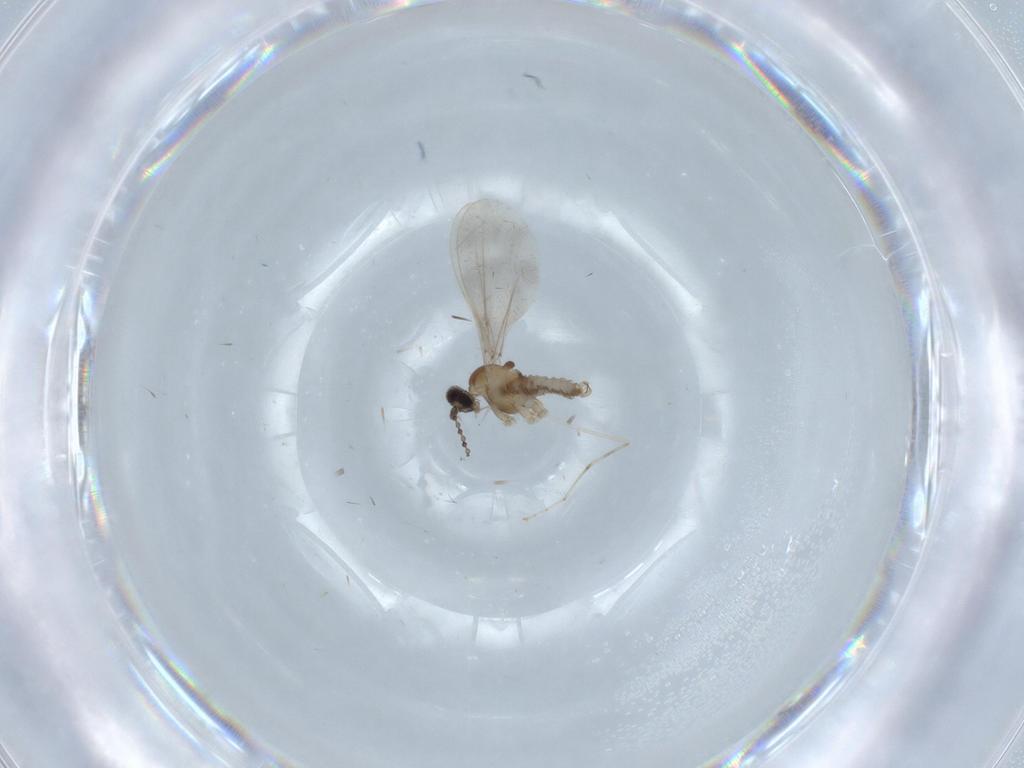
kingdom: Animalia
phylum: Arthropoda
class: Insecta
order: Diptera
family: Cecidomyiidae
